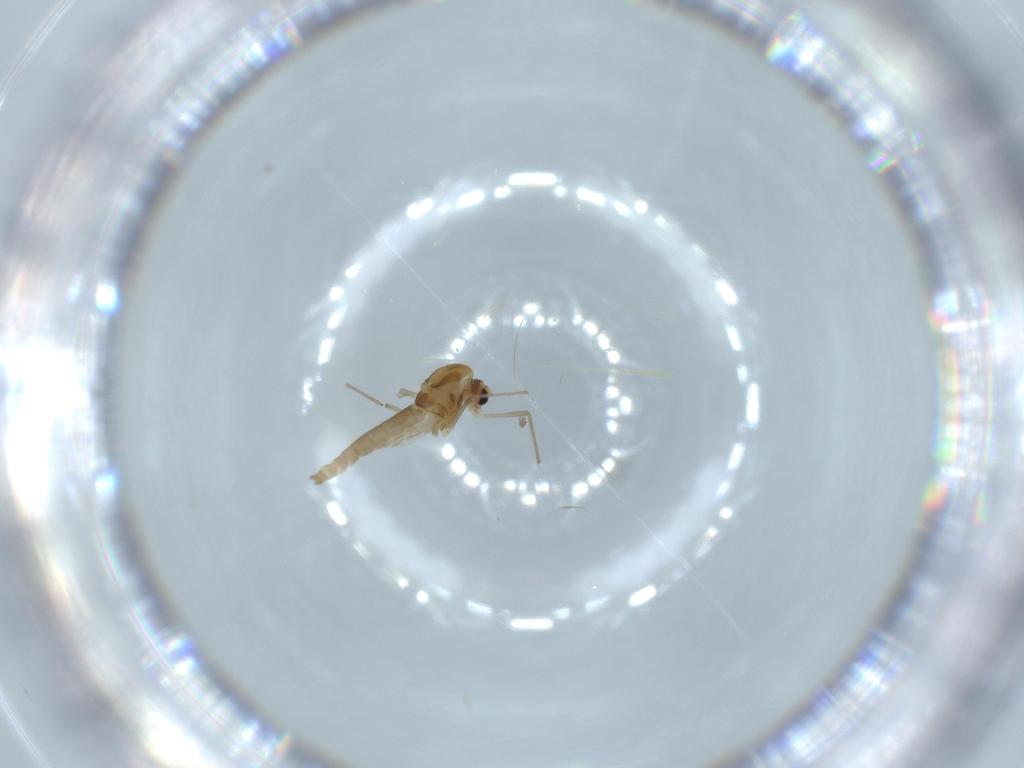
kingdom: Animalia
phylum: Arthropoda
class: Insecta
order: Diptera
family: Chironomidae
